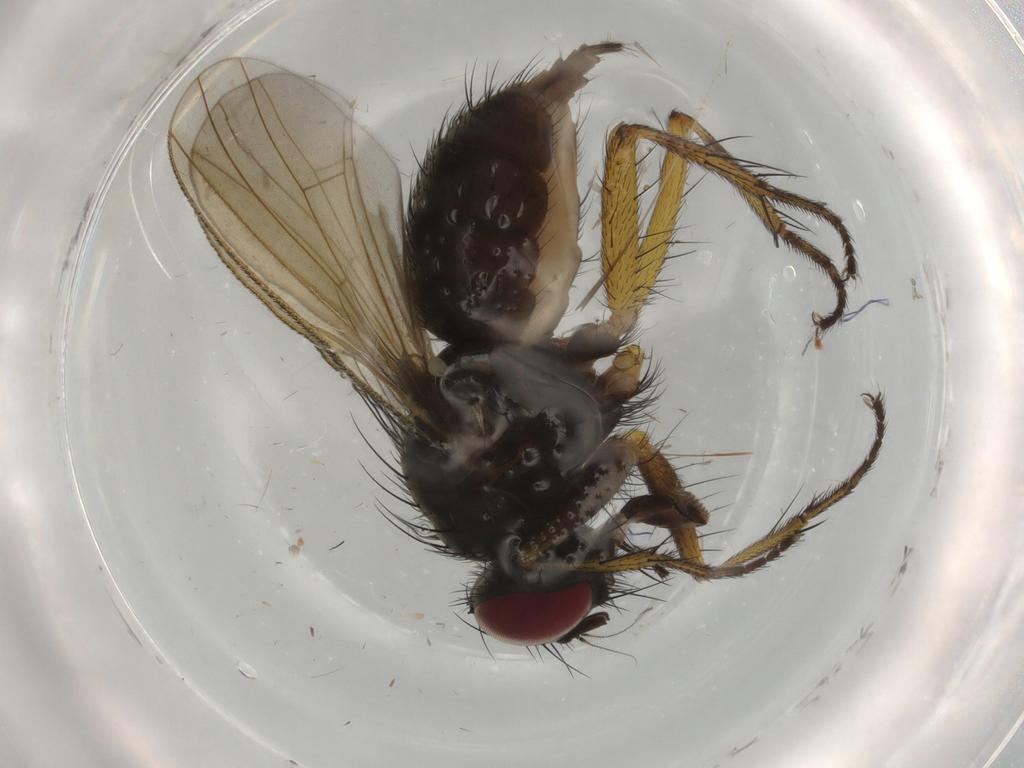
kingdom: Animalia
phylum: Arthropoda
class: Insecta
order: Diptera
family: Muscidae
